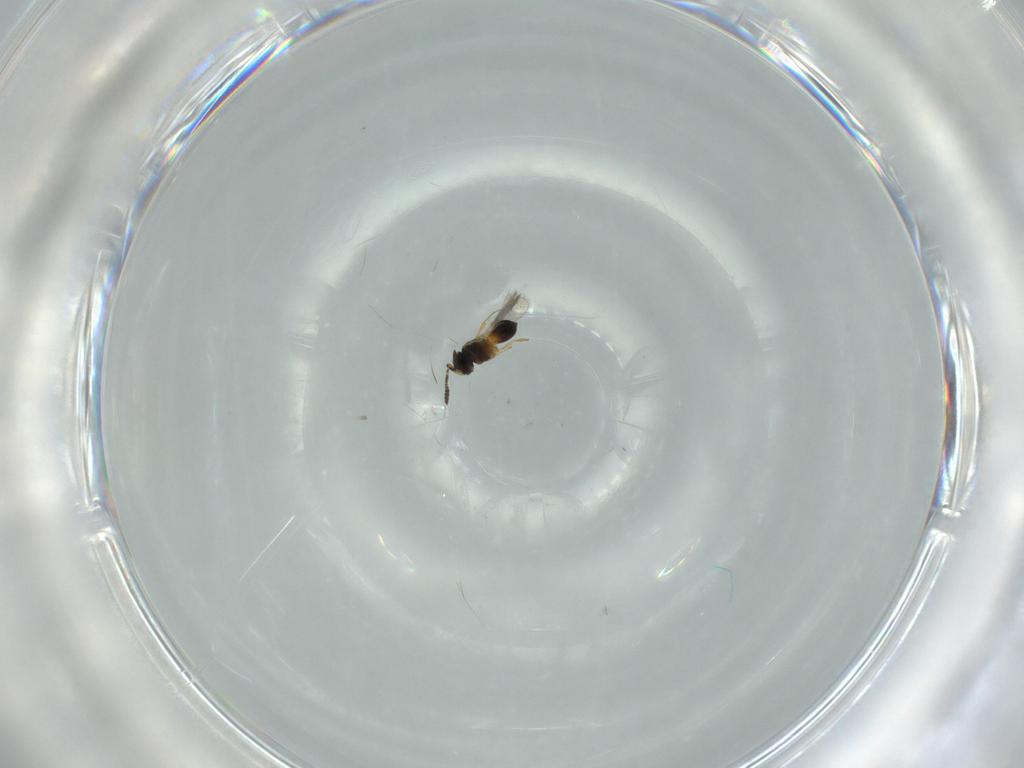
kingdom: Animalia
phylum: Arthropoda
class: Insecta
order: Hymenoptera
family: Scelionidae
